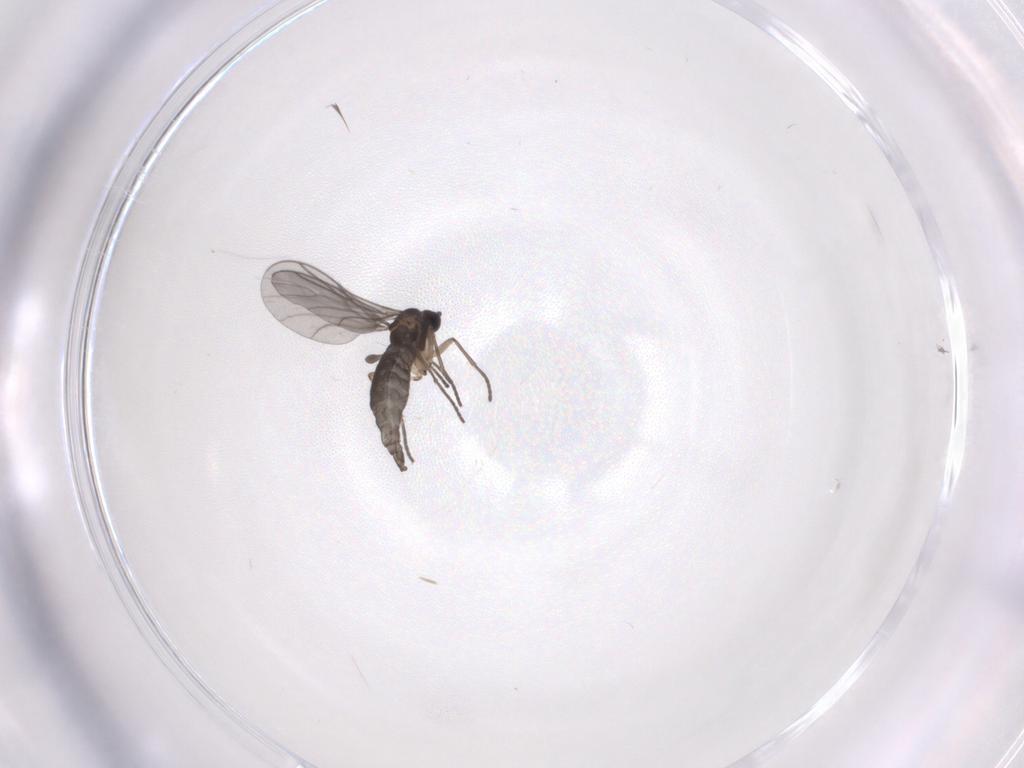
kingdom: Animalia
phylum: Arthropoda
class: Insecta
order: Diptera
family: Sciaridae
